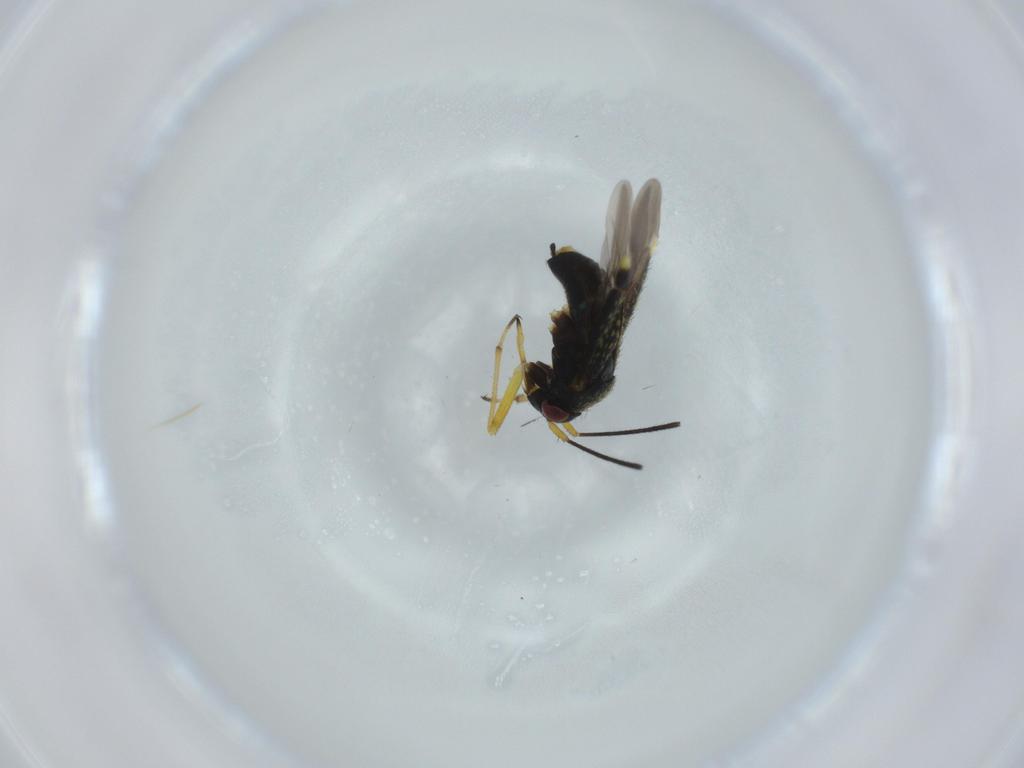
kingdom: Animalia
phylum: Arthropoda
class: Insecta
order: Hemiptera
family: Miridae
